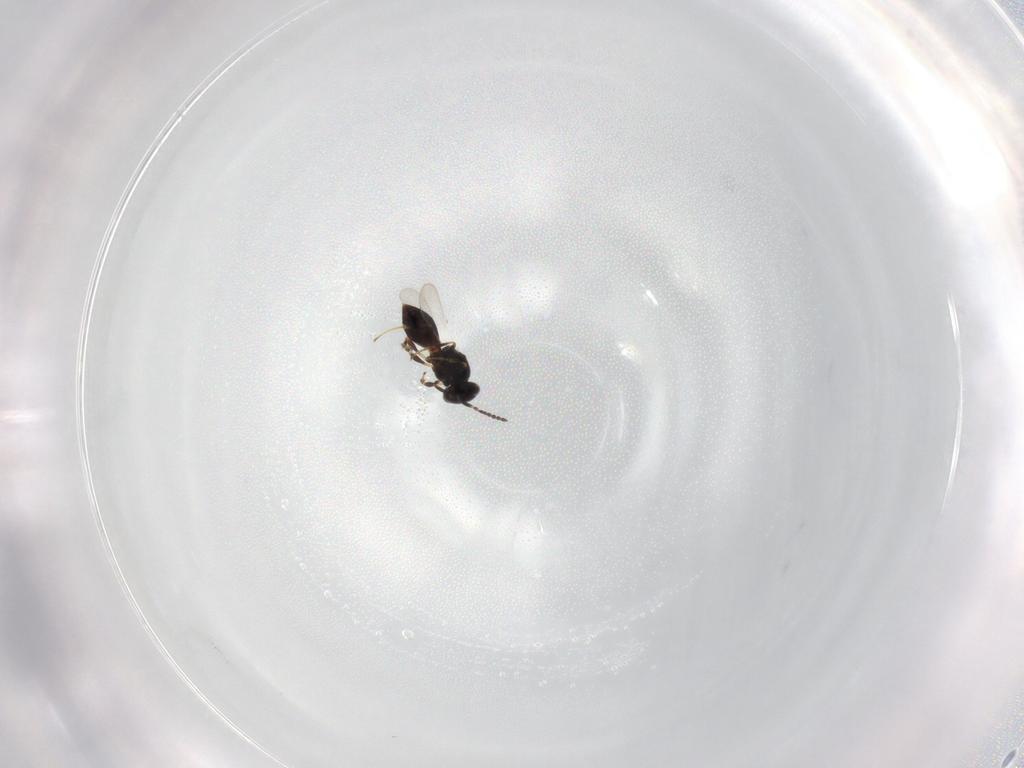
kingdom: Animalia
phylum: Arthropoda
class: Insecta
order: Hymenoptera
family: Platygastridae
